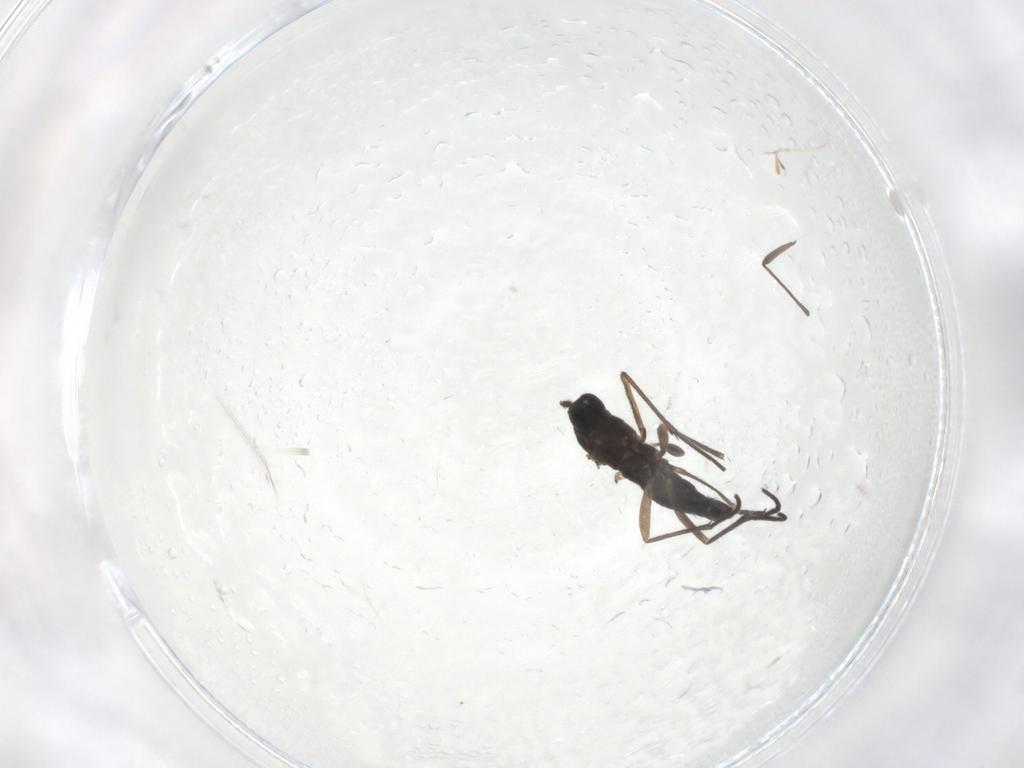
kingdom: Animalia
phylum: Arthropoda
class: Insecta
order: Diptera
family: Sciaridae
